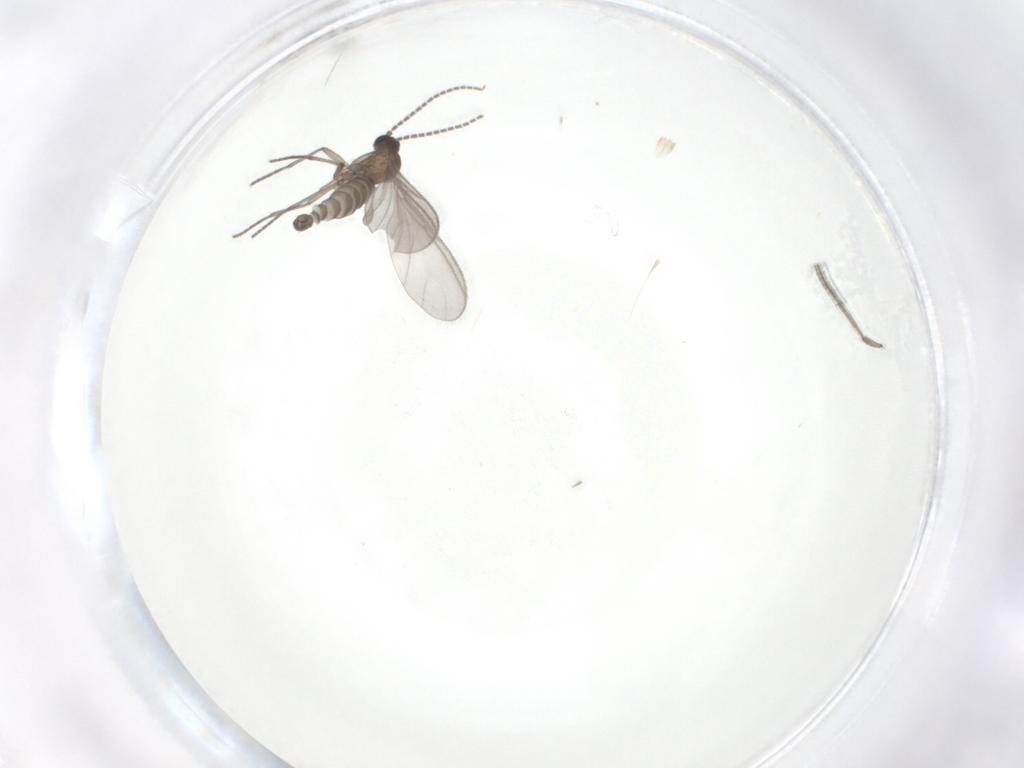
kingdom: Animalia
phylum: Arthropoda
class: Insecta
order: Diptera
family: Sciaridae
